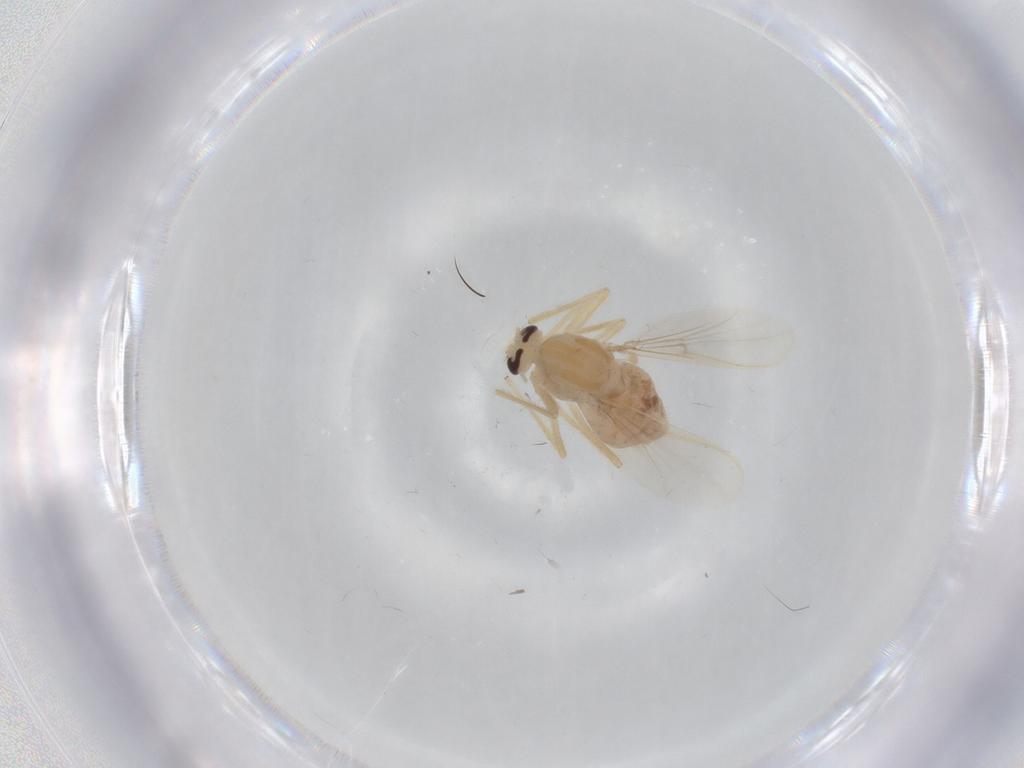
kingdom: Animalia
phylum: Arthropoda
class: Insecta
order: Diptera
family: Chironomidae
